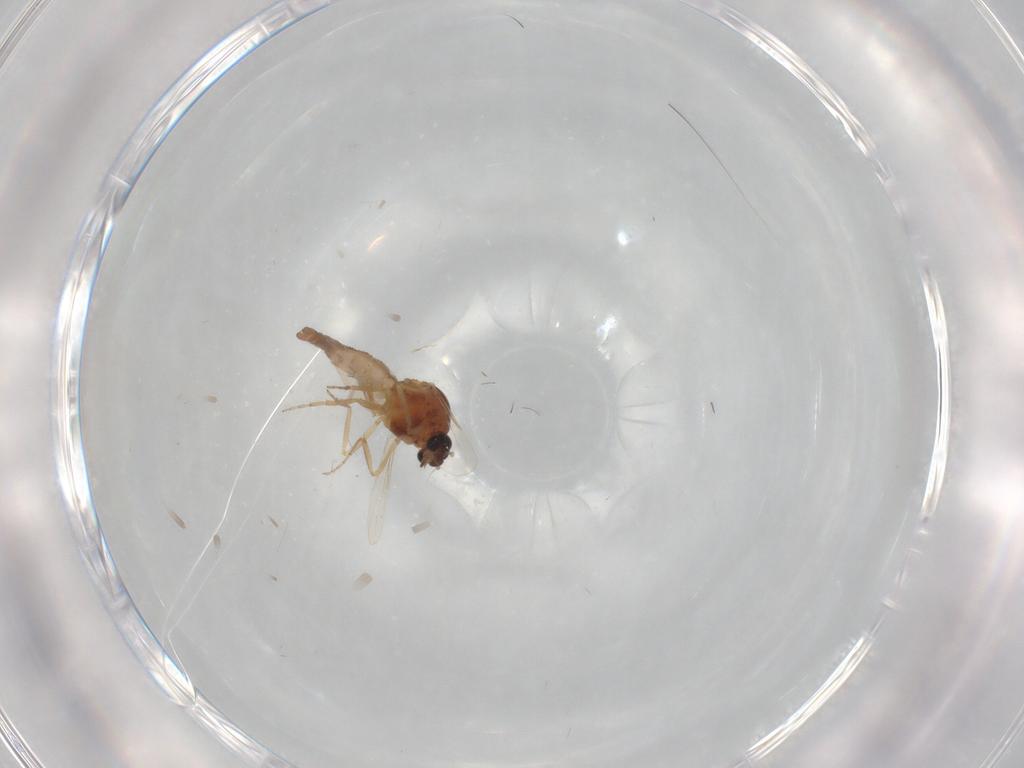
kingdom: Animalia
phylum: Arthropoda
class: Insecta
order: Diptera
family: Ceratopogonidae
